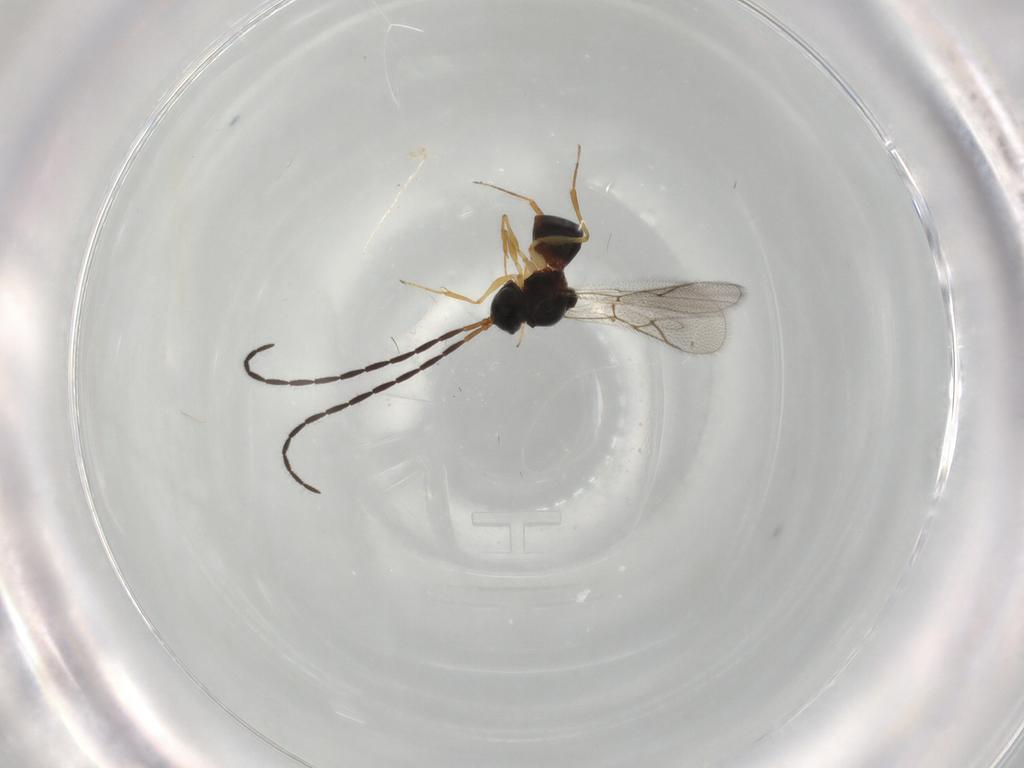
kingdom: Animalia
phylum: Arthropoda
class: Insecta
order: Hymenoptera
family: Figitidae
